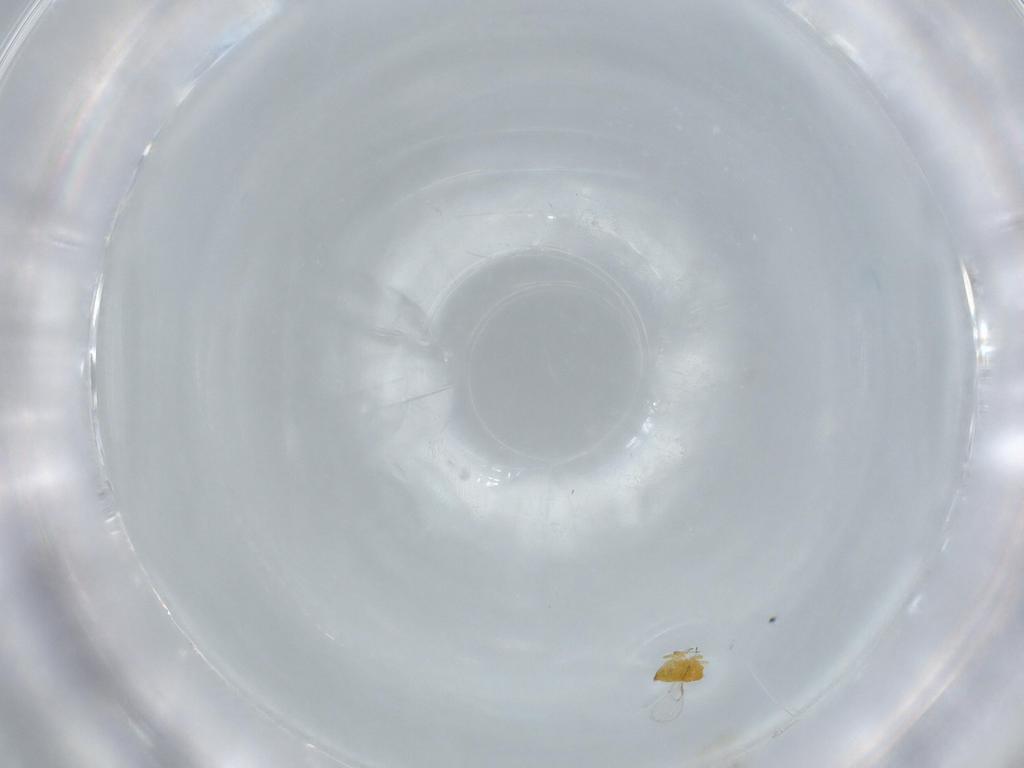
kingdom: Animalia
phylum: Arthropoda
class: Insecta
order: Hymenoptera
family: Trichogrammatidae
